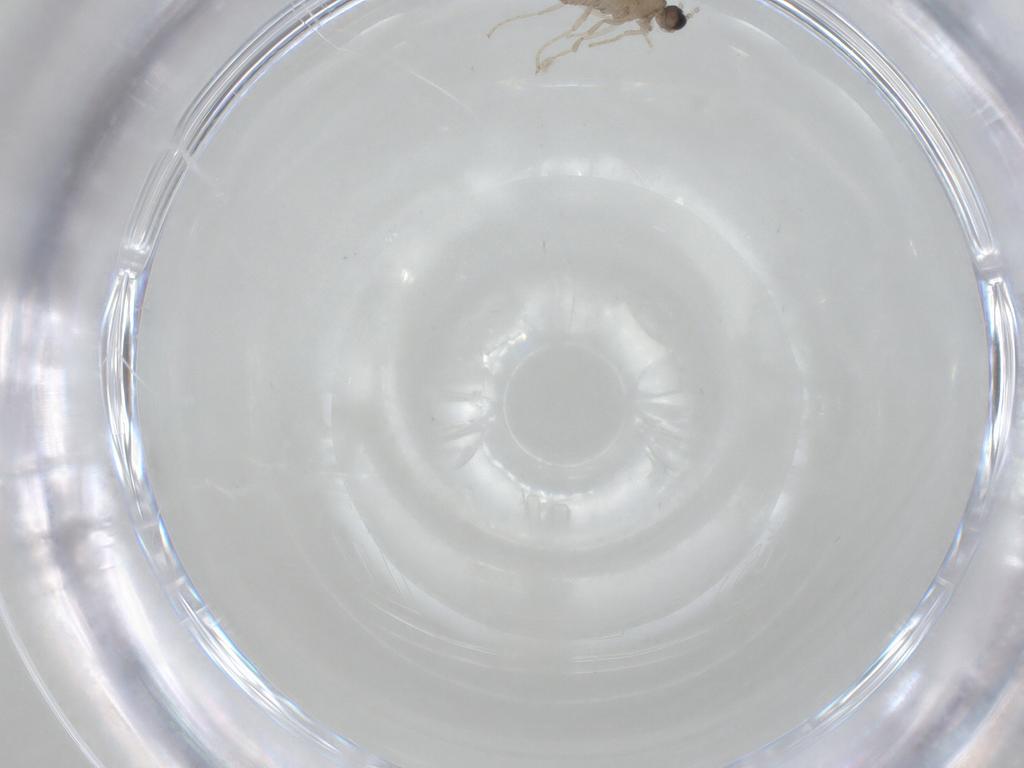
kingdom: Animalia
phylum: Arthropoda
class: Insecta
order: Diptera
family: Cecidomyiidae
